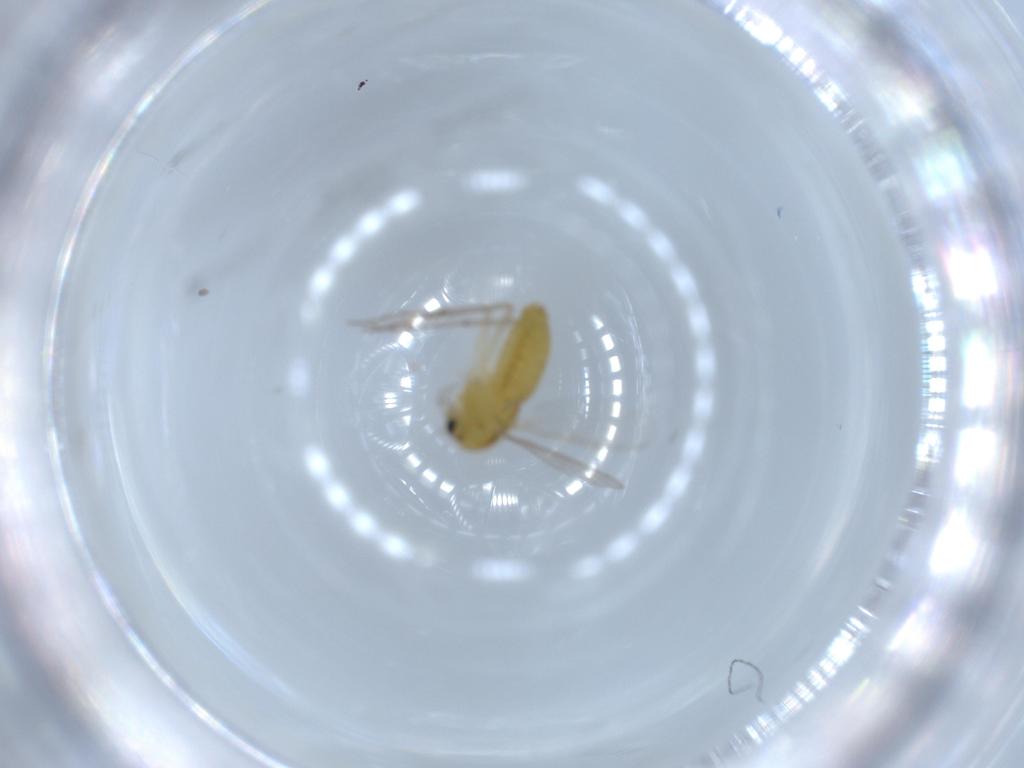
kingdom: Animalia
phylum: Arthropoda
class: Insecta
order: Diptera
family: Chironomidae
